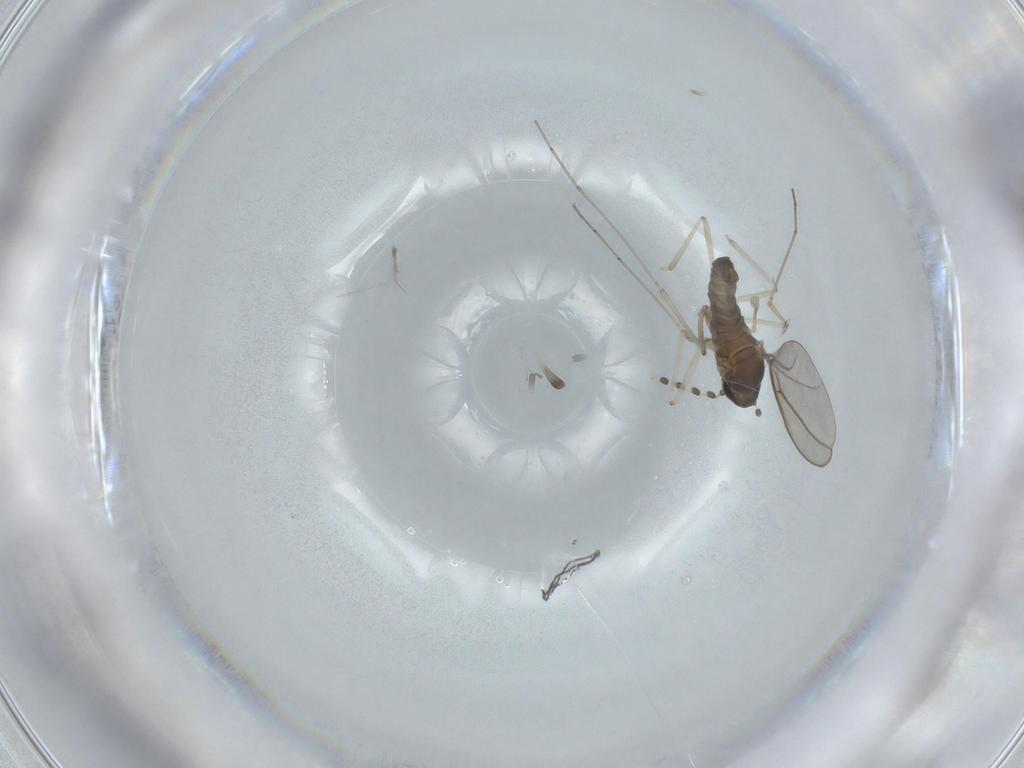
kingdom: Animalia
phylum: Arthropoda
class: Insecta
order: Diptera
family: Cecidomyiidae
